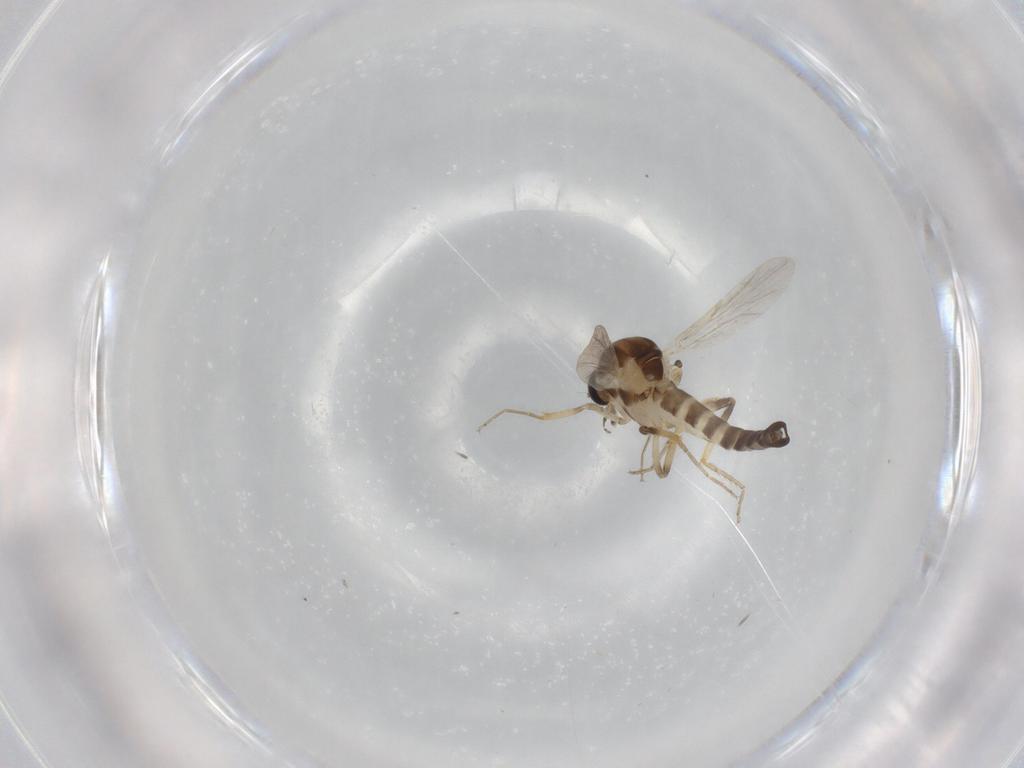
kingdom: Animalia
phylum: Arthropoda
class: Insecta
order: Diptera
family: Ceratopogonidae
